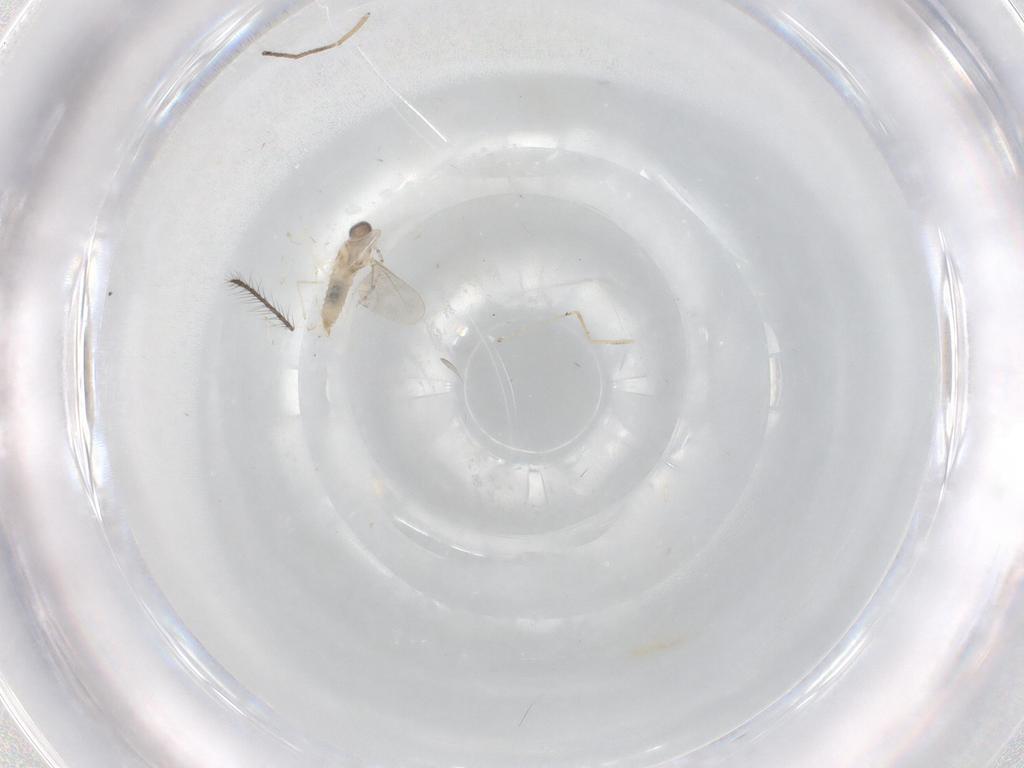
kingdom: Animalia
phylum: Arthropoda
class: Insecta
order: Diptera
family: Cecidomyiidae
